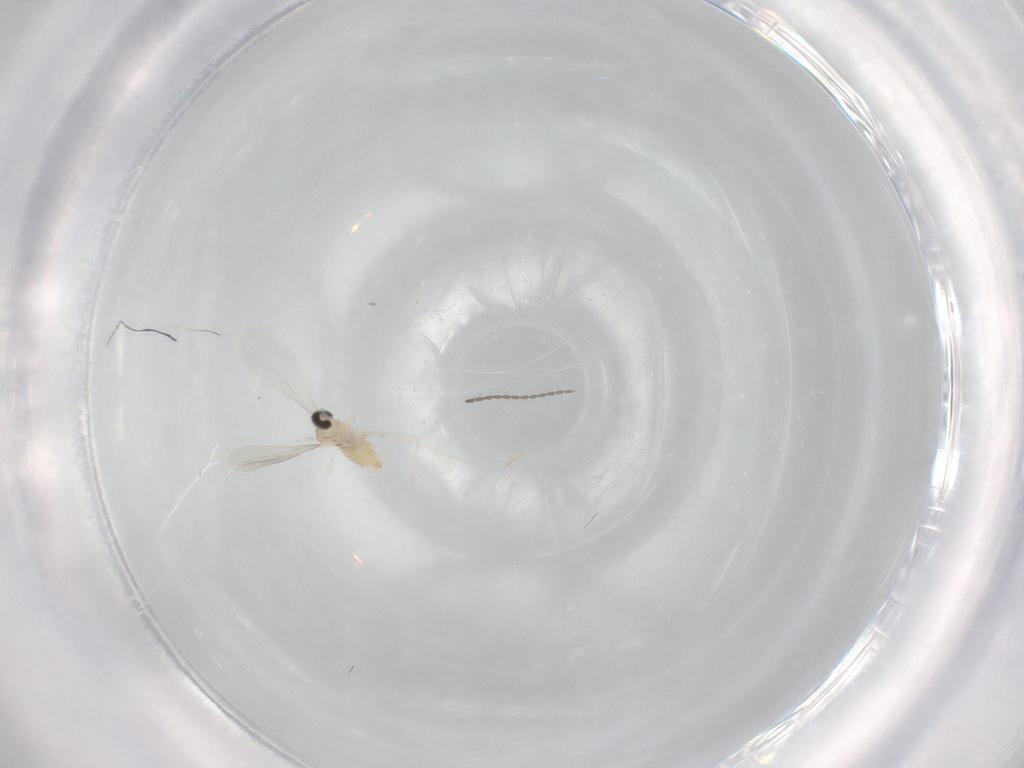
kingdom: Animalia
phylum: Arthropoda
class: Insecta
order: Diptera
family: Cecidomyiidae
